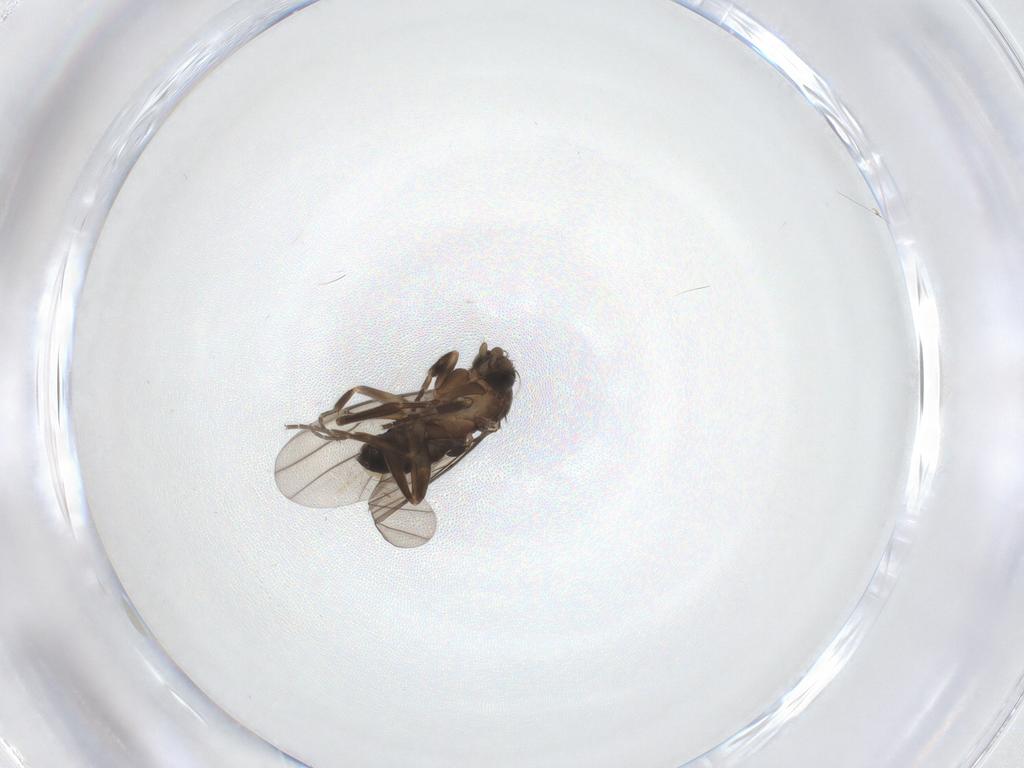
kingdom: Animalia
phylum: Arthropoda
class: Insecta
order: Diptera
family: Cecidomyiidae
